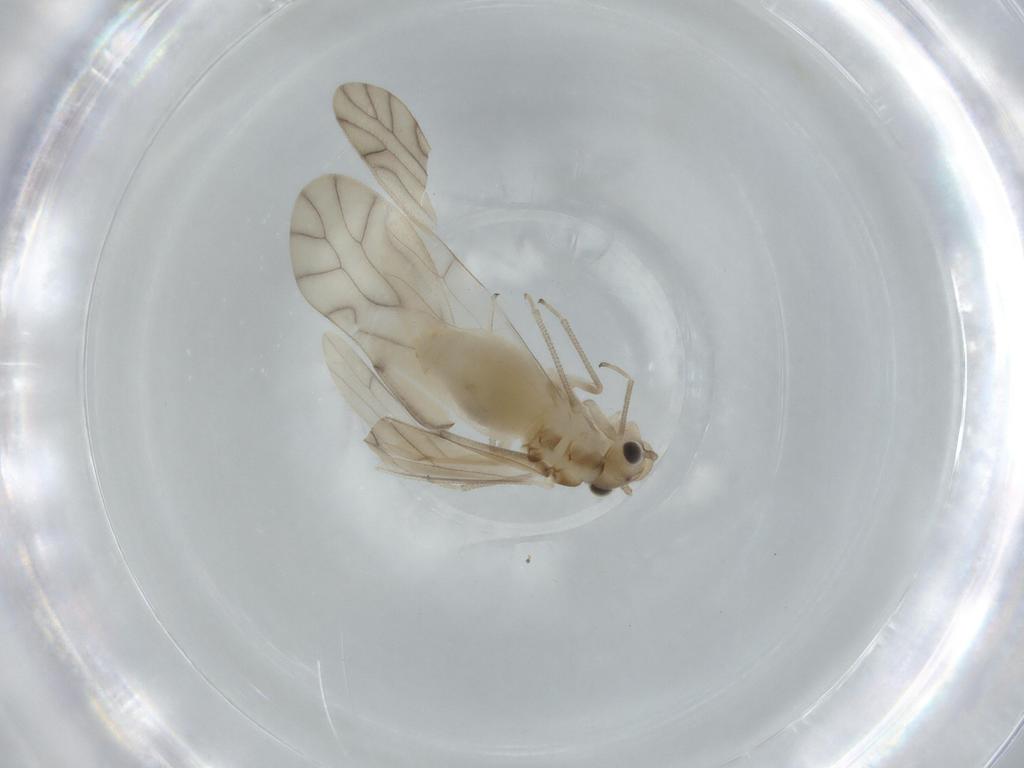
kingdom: Animalia
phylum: Arthropoda
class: Insecta
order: Psocodea
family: Caeciliusidae
